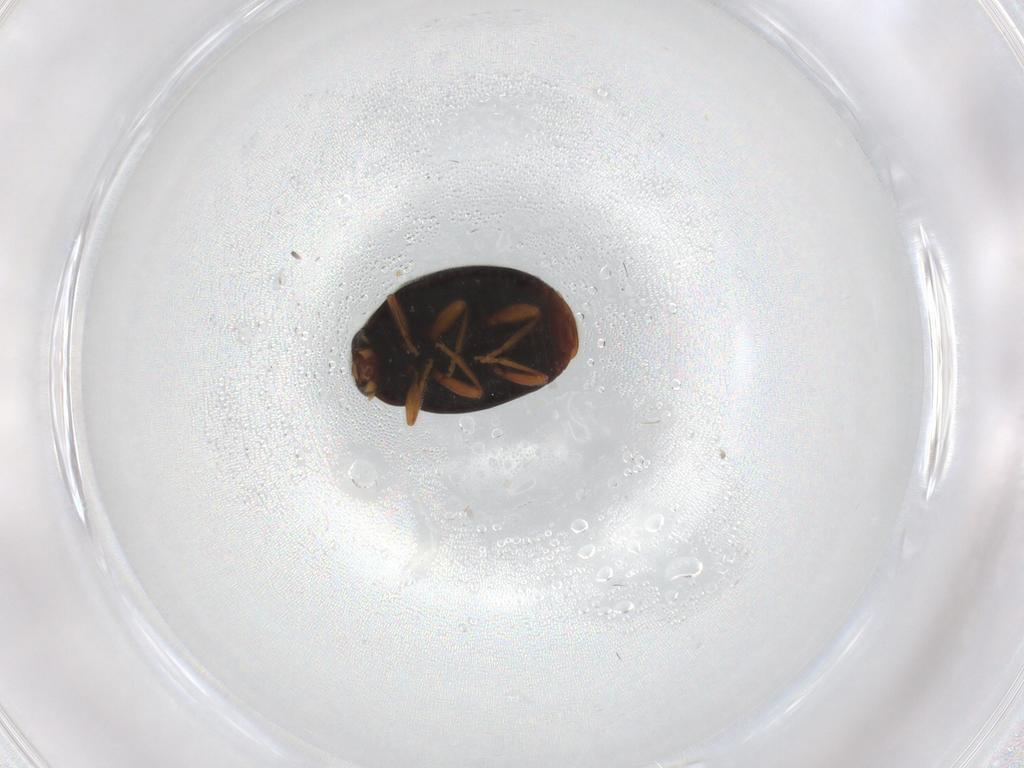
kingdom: Animalia
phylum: Arthropoda
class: Insecta
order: Coleoptera
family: Coccinellidae
